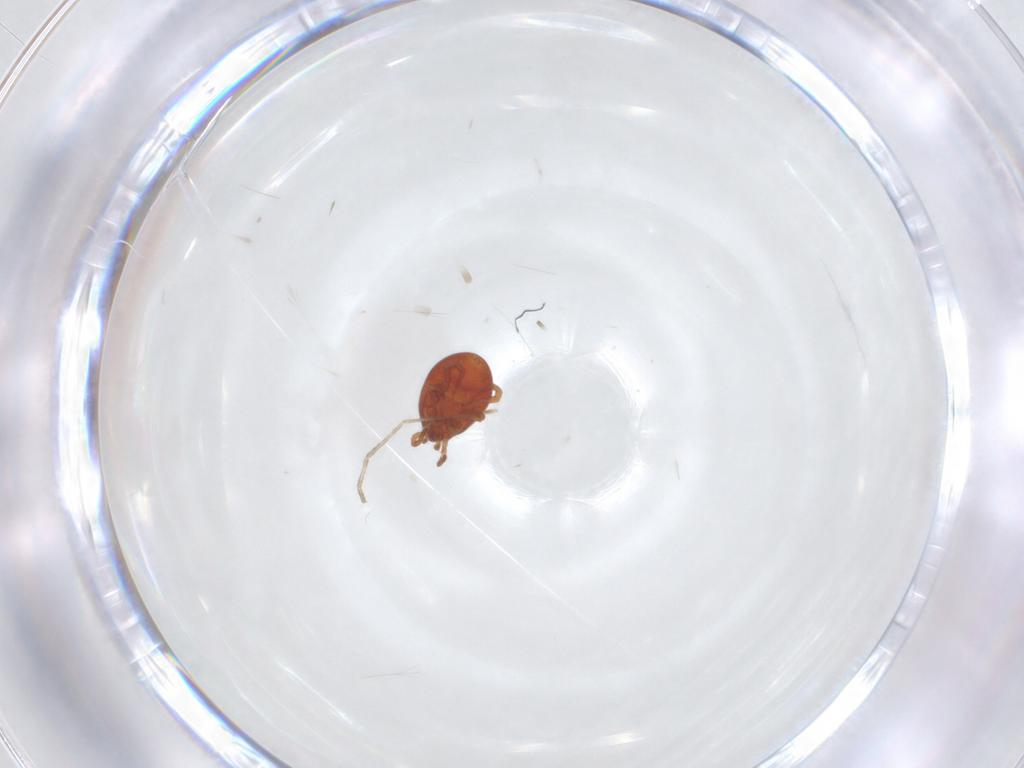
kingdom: Animalia
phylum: Arthropoda
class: Arachnida
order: Mesostigmata
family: Parasitidae
